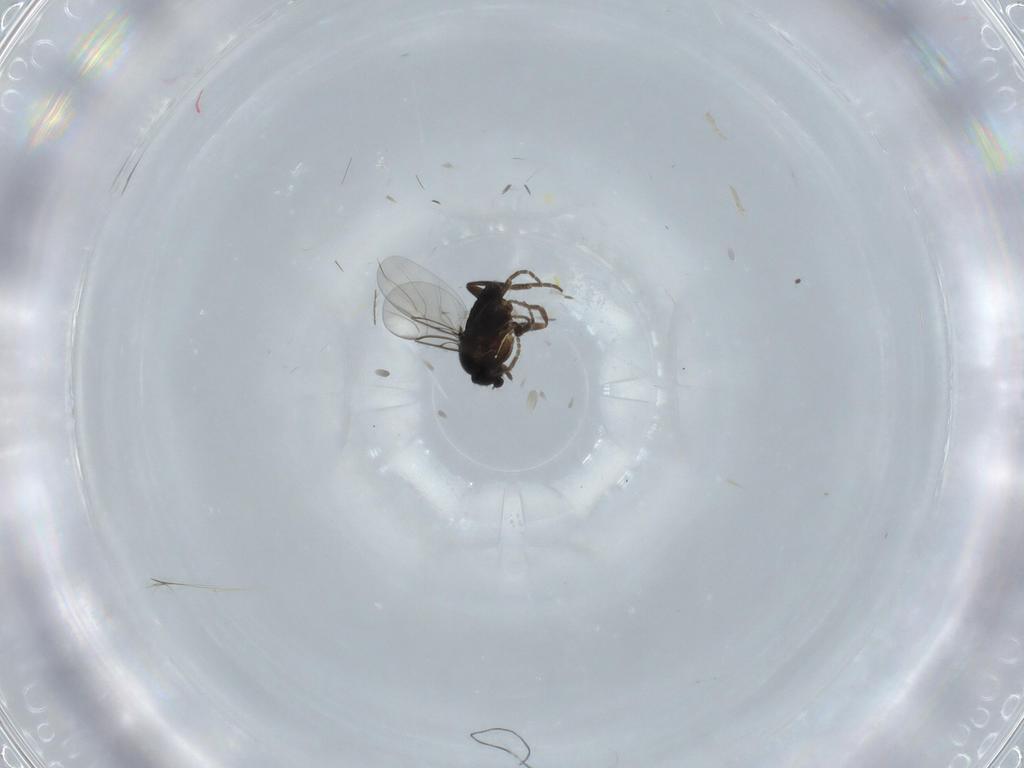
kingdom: Animalia
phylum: Arthropoda
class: Insecta
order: Diptera
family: Phoridae
